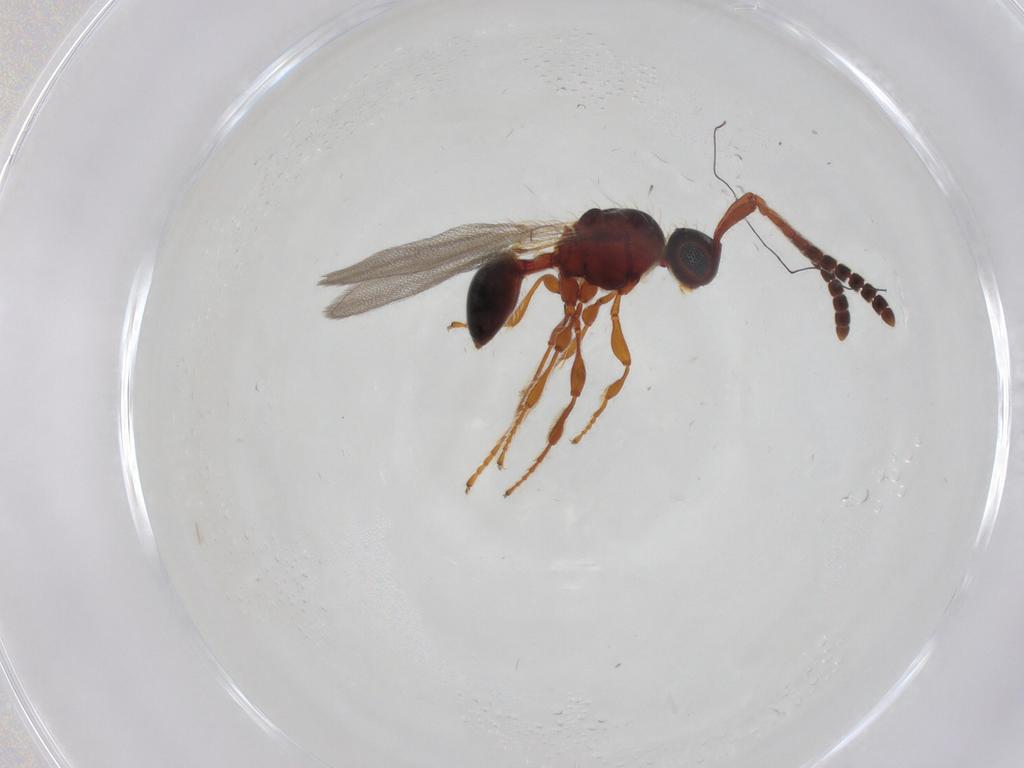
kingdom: Animalia
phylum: Arthropoda
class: Insecta
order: Hymenoptera
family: Diapriidae
